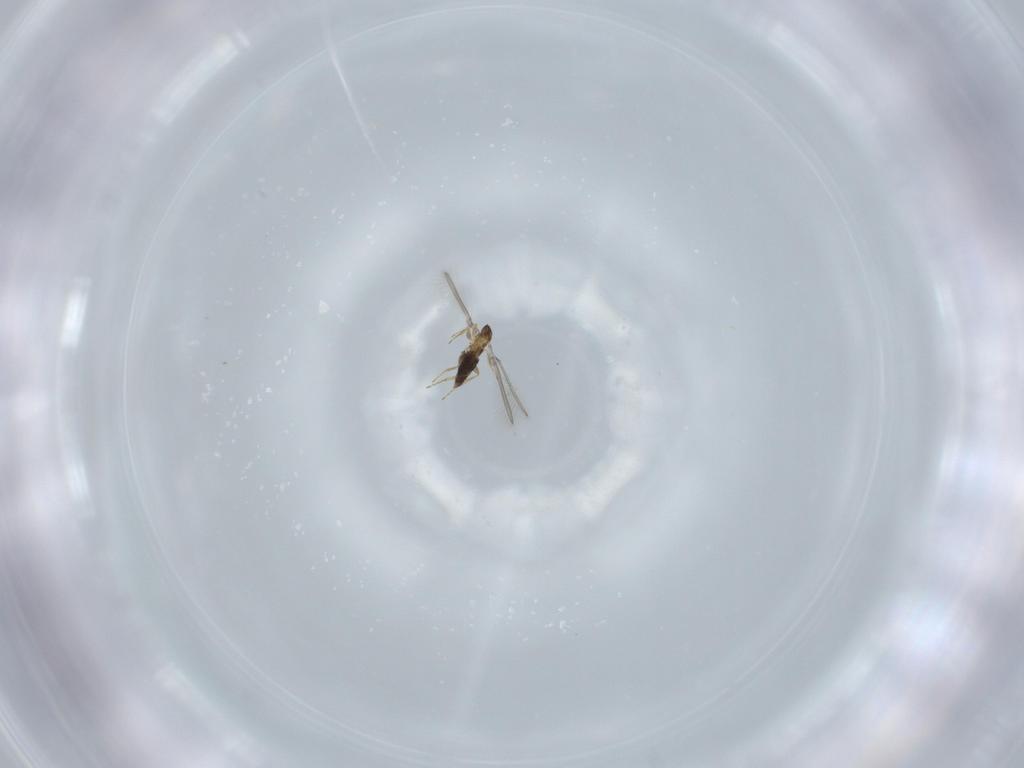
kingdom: Animalia
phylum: Arthropoda
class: Insecta
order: Hymenoptera
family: Mymaridae
